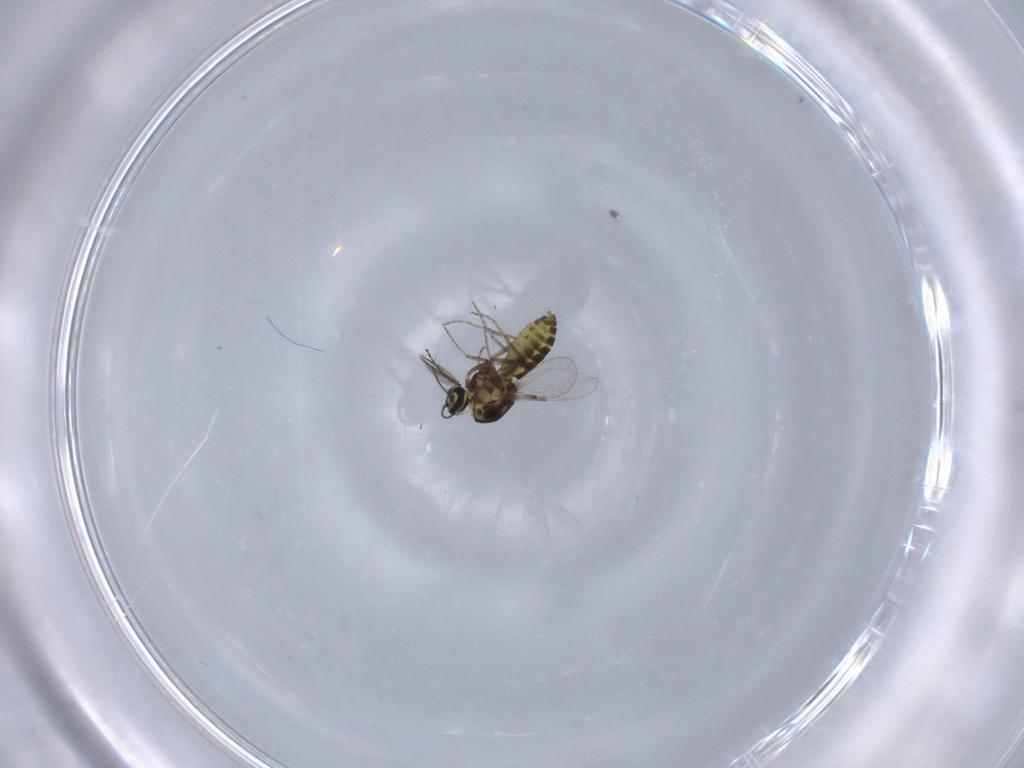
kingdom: Animalia
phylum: Arthropoda
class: Insecta
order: Diptera
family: Ceratopogonidae
